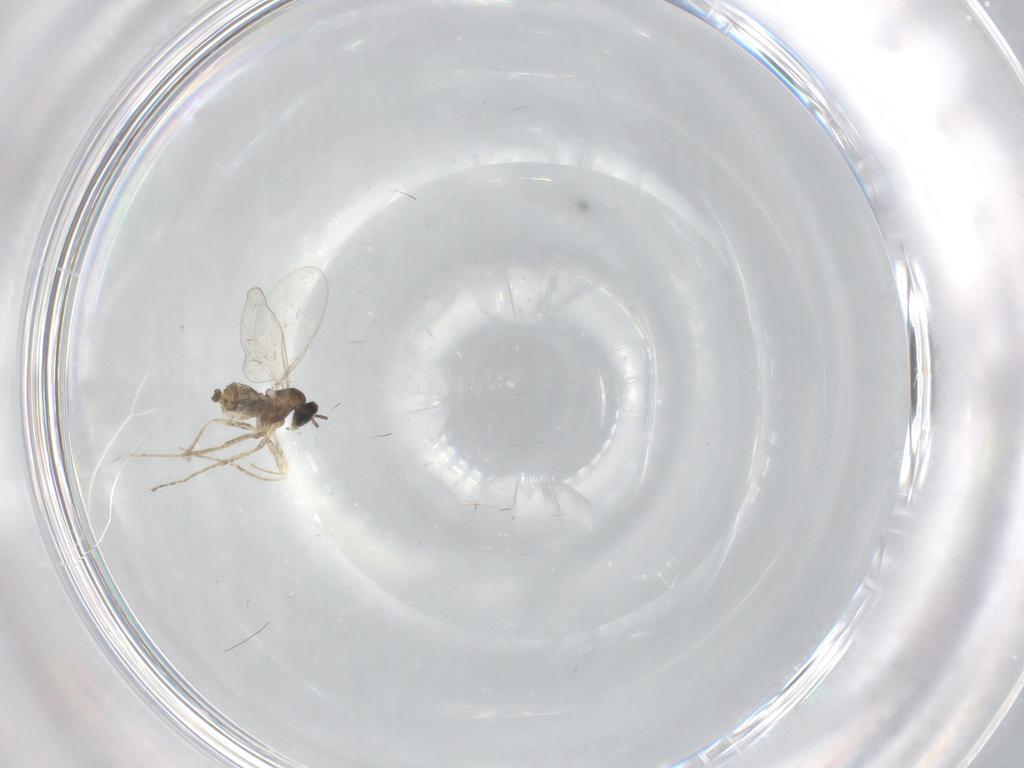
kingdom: Animalia
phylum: Arthropoda
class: Insecta
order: Diptera
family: Cecidomyiidae
